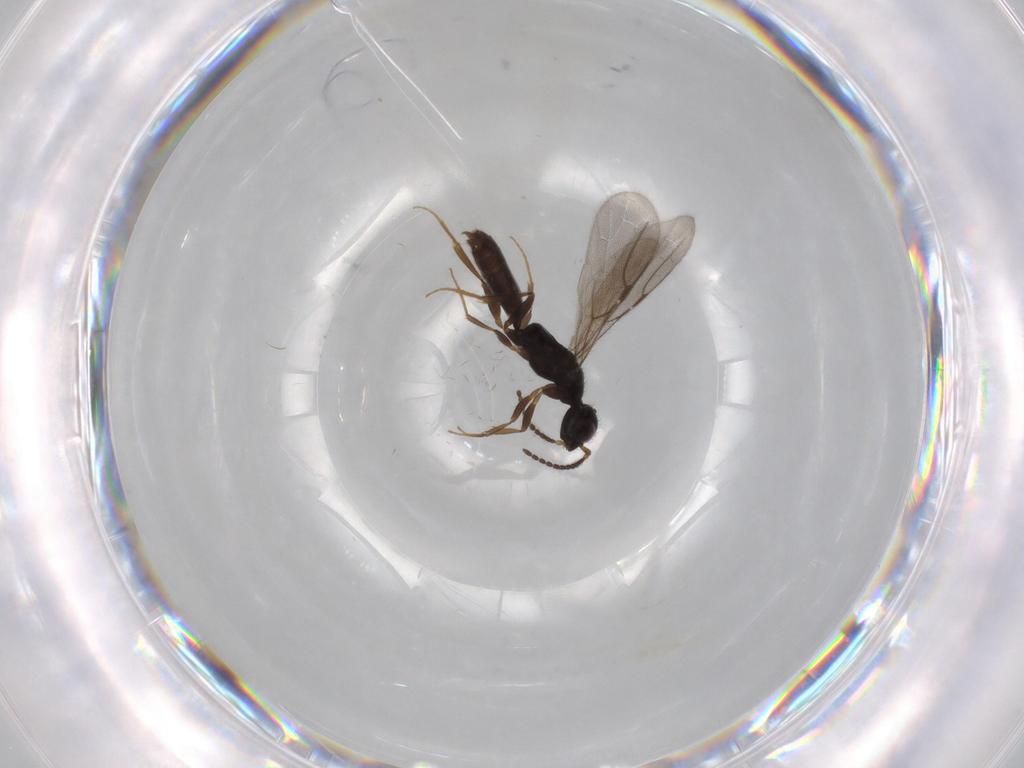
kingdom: Animalia
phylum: Arthropoda
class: Insecta
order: Hymenoptera
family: Bethylidae
